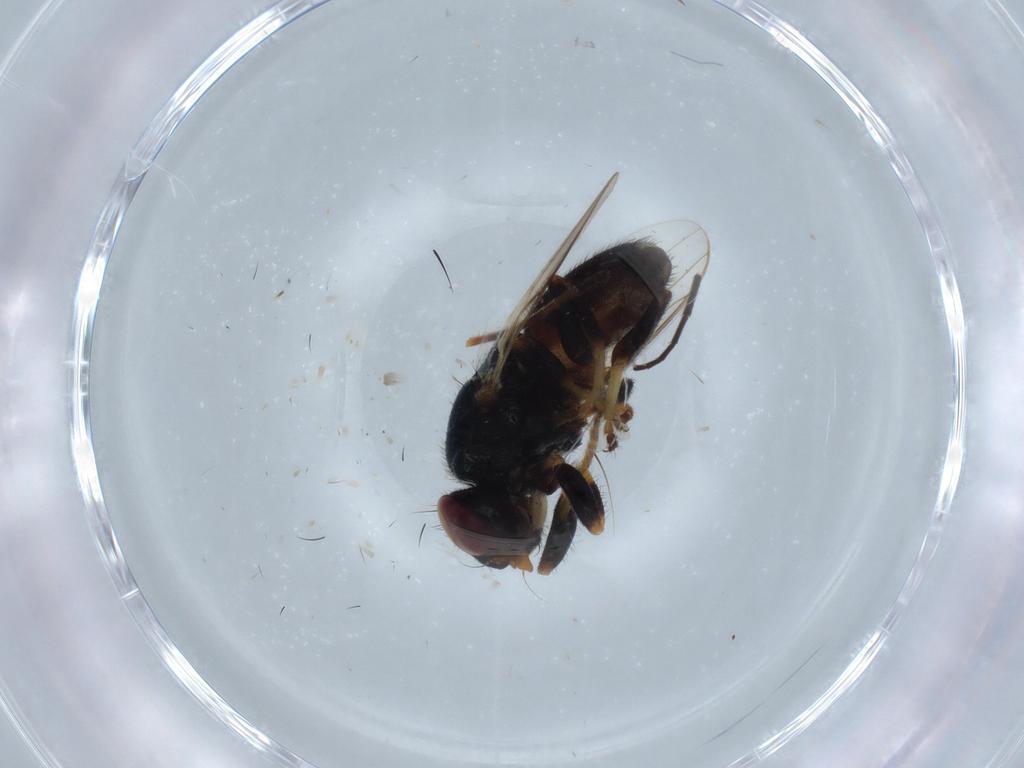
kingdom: Animalia
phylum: Arthropoda
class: Insecta
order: Diptera
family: Chloropidae
